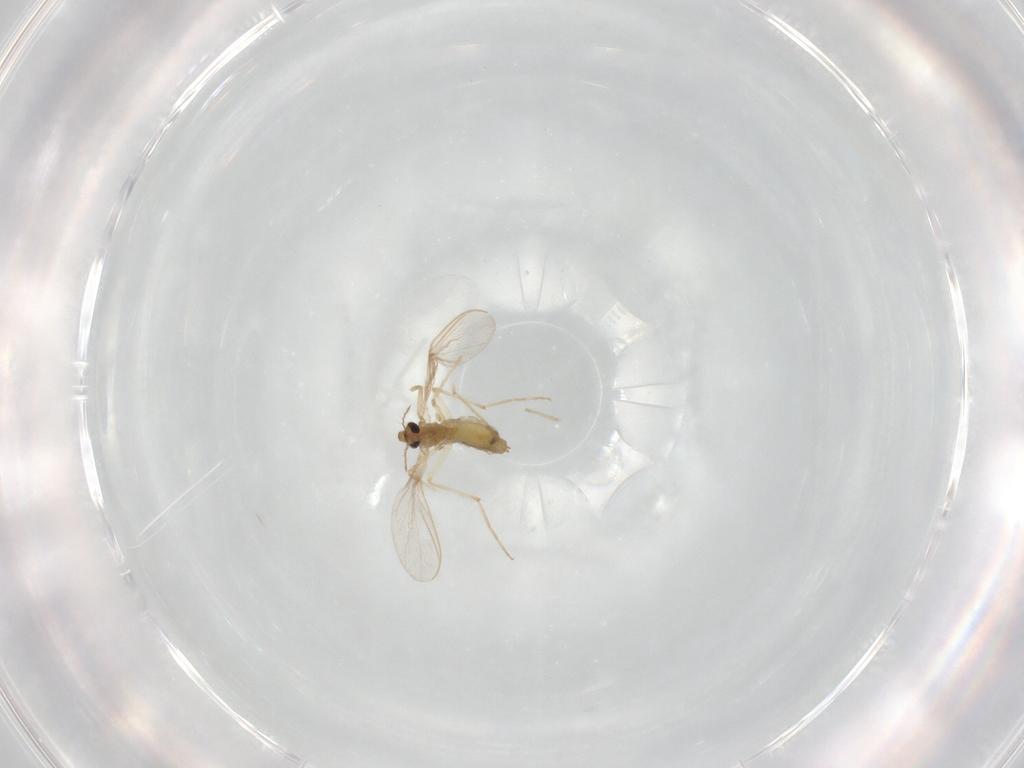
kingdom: Animalia
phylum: Arthropoda
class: Insecta
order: Diptera
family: Chironomidae
